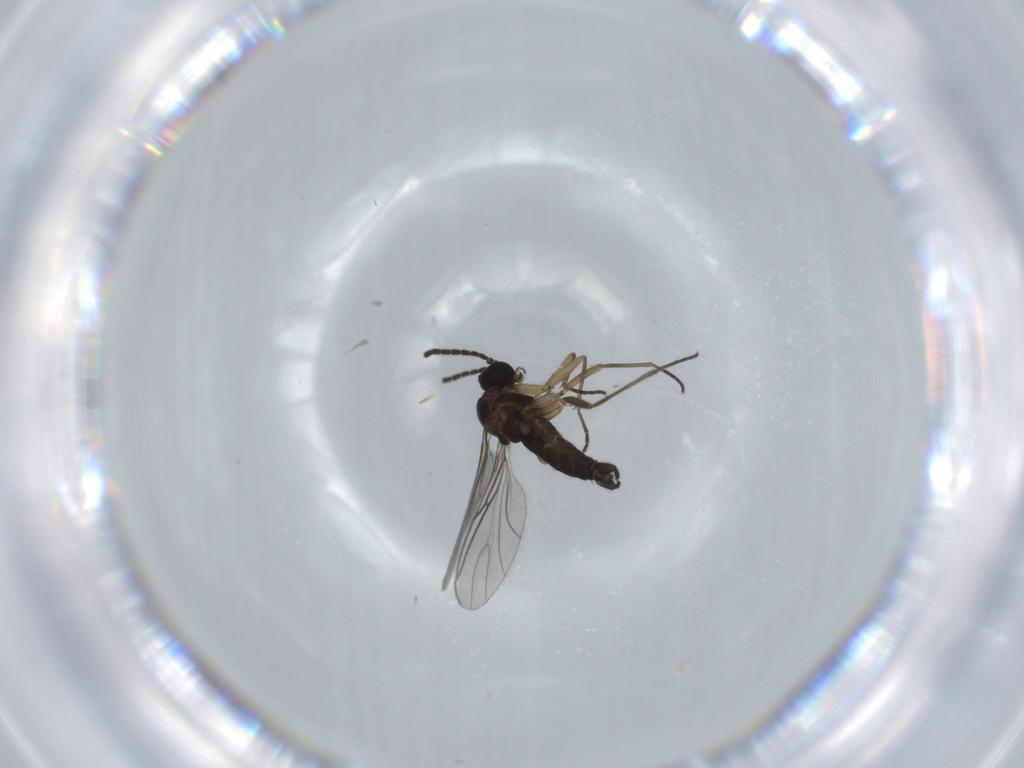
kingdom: Animalia
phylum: Arthropoda
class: Insecta
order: Diptera
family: Sciaridae
